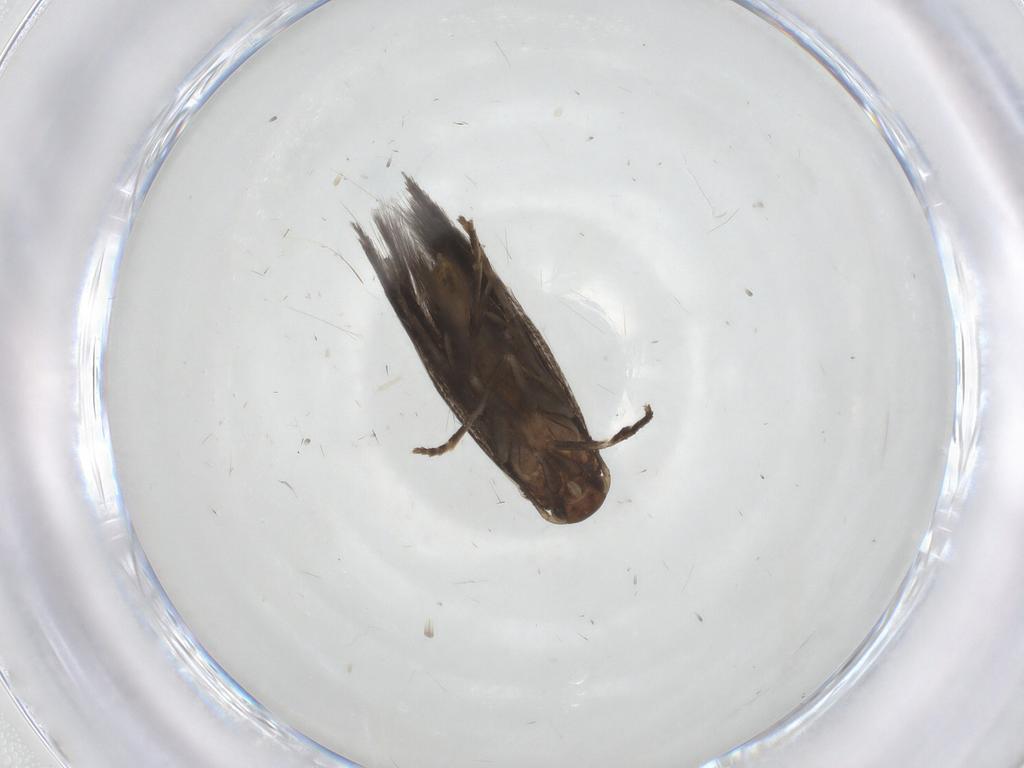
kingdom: Animalia
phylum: Arthropoda
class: Insecta
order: Lepidoptera
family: Elachistidae
